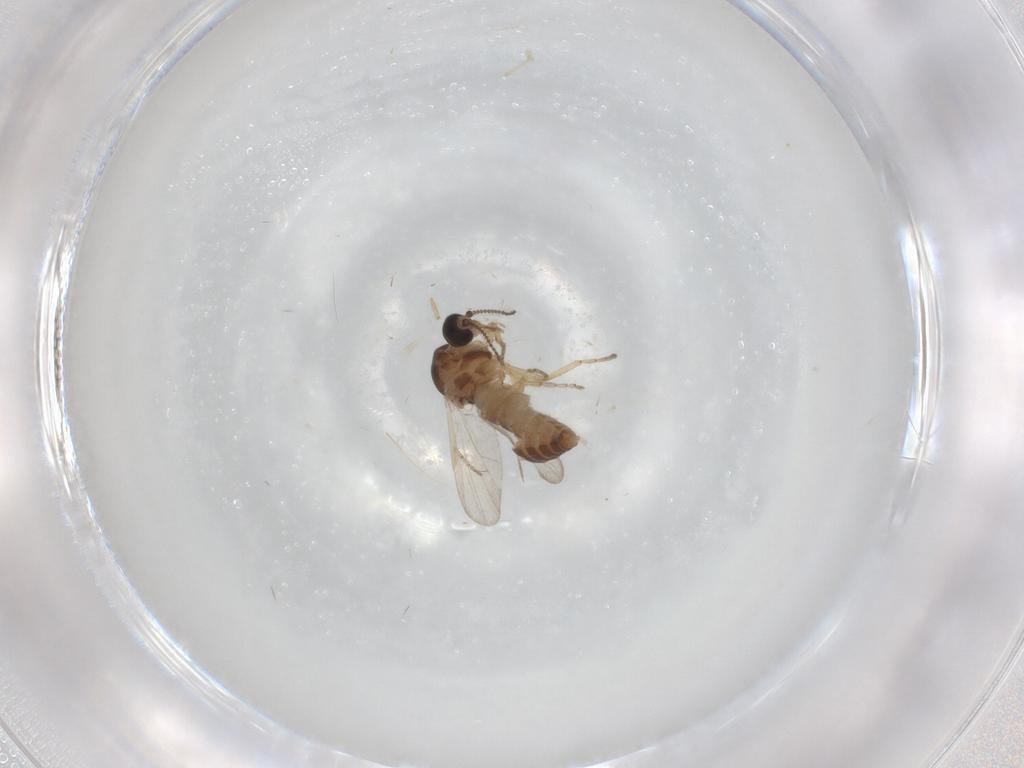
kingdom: Animalia
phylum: Arthropoda
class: Insecta
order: Diptera
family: Ceratopogonidae
